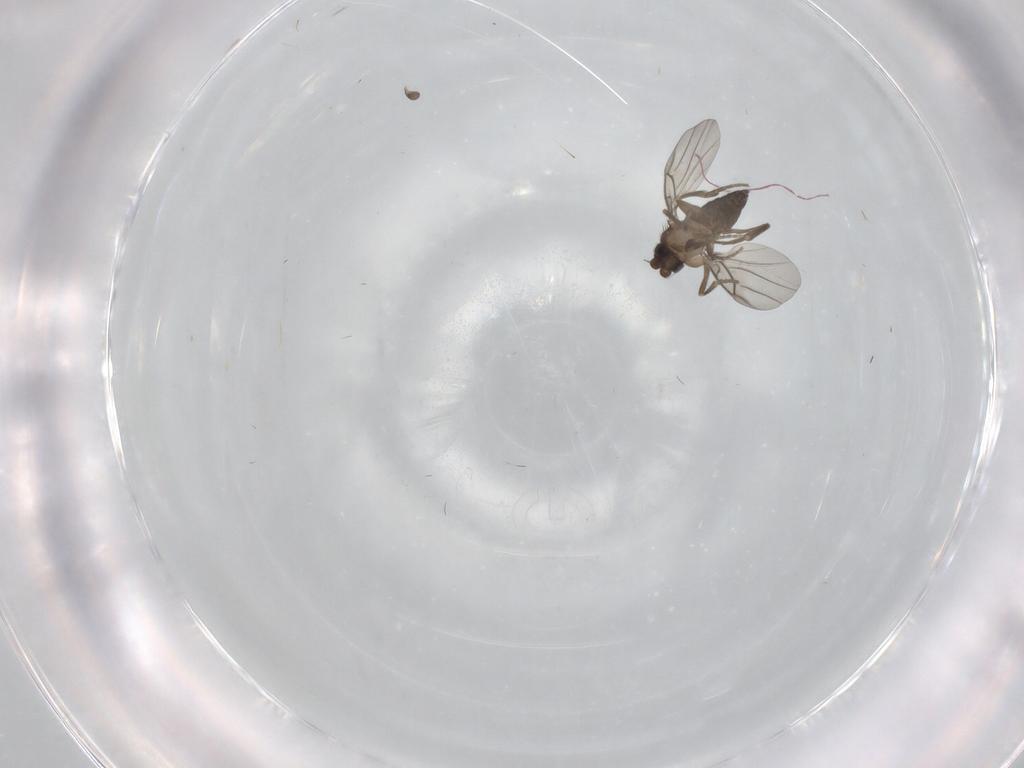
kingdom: Animalia
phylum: Arthropoda
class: Insecta
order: Diptera
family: Phoridae
